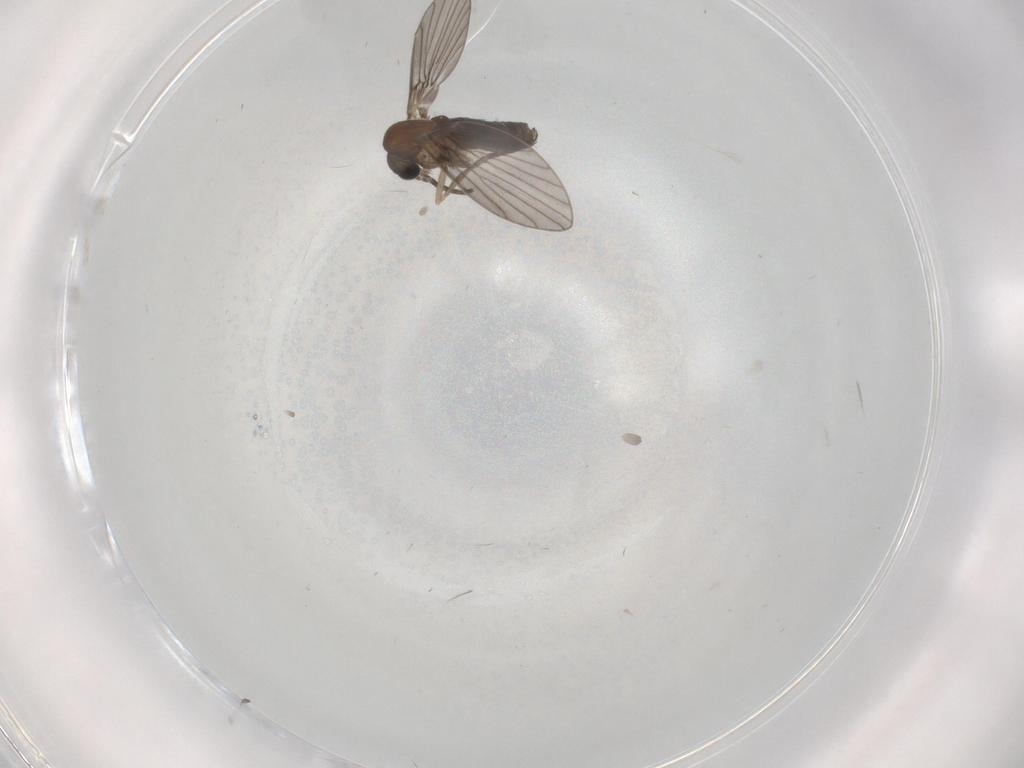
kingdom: Animalia
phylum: Arthropoda
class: Insecta
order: Diptera
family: Psychodidae
